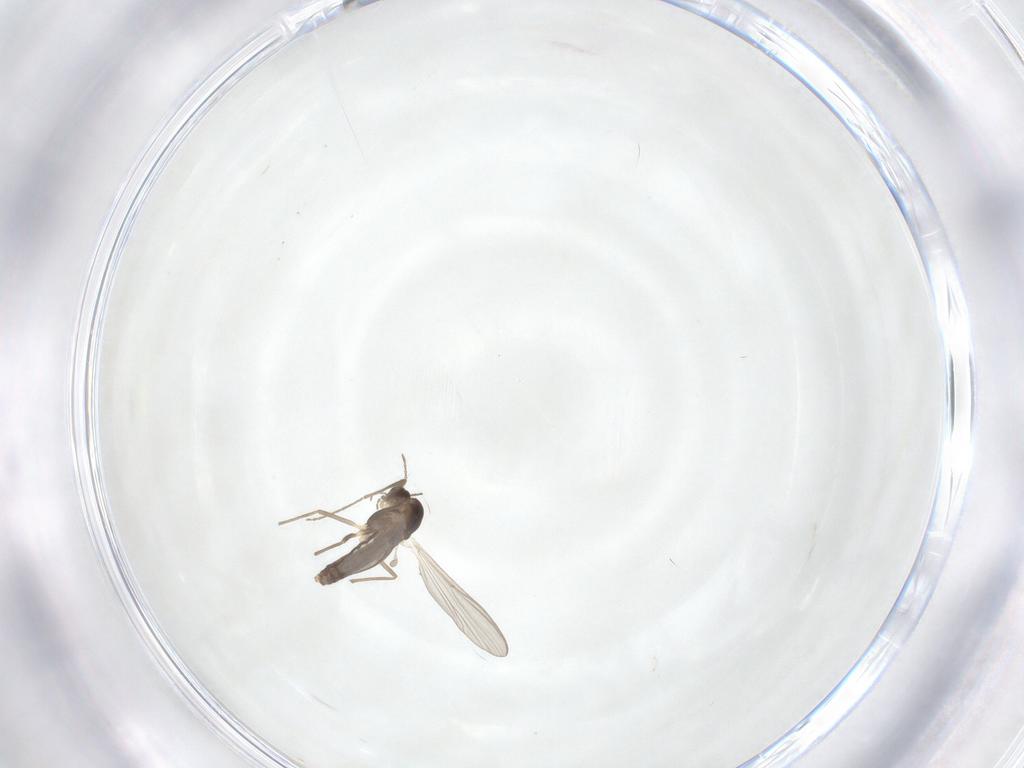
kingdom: Animalia
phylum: Arthropoda
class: Insecta
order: Diptera
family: Chironomidae
